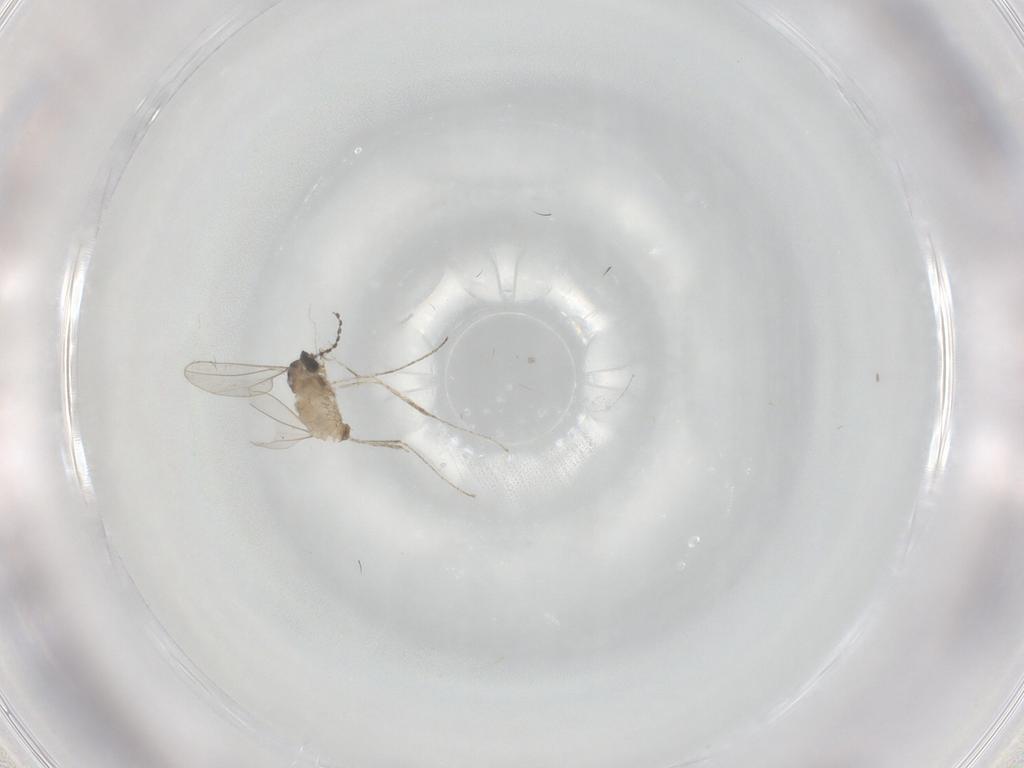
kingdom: Animalia
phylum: Arthropoda
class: Insecta
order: Diptera
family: Cecidomyiidae
